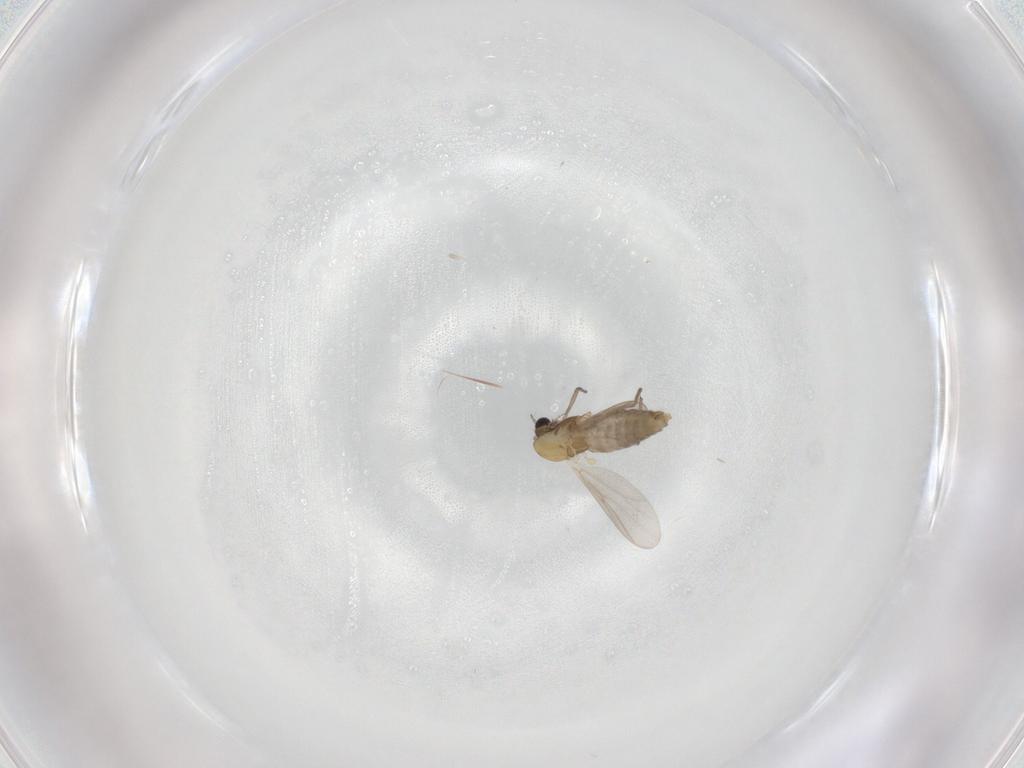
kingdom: Animalia
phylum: Arthropoda
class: Insecta
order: Diptera
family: Chironomidae
